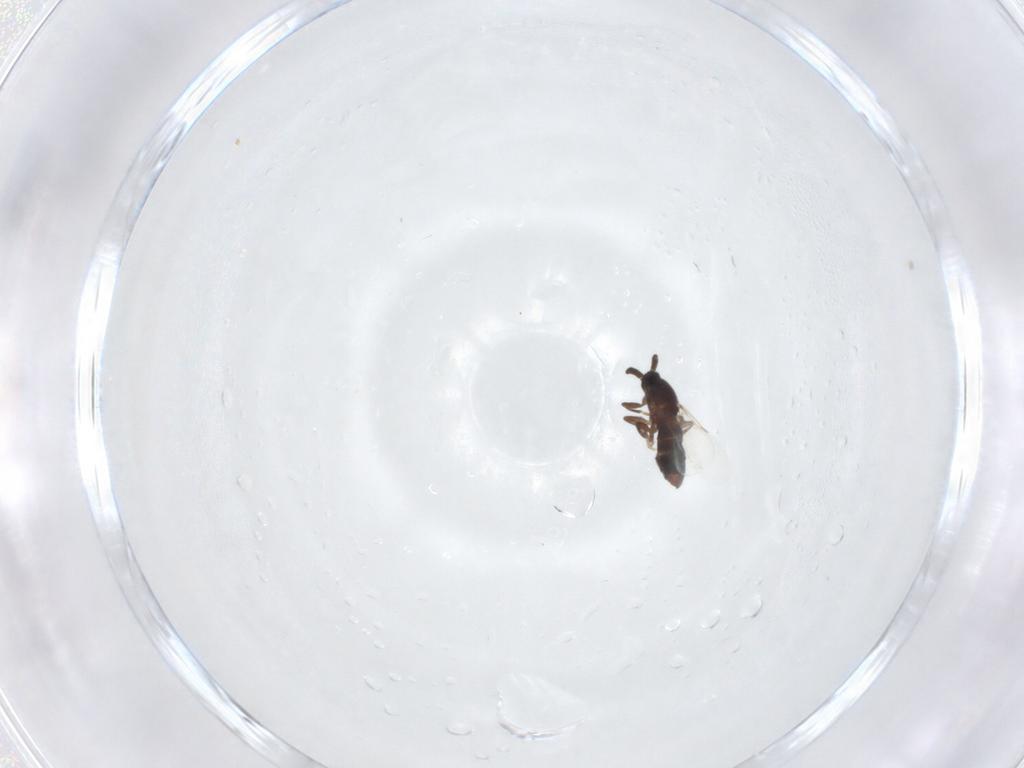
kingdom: Animalia
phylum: Arthropoda
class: Insecta
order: Diptera
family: Scatopsidae
